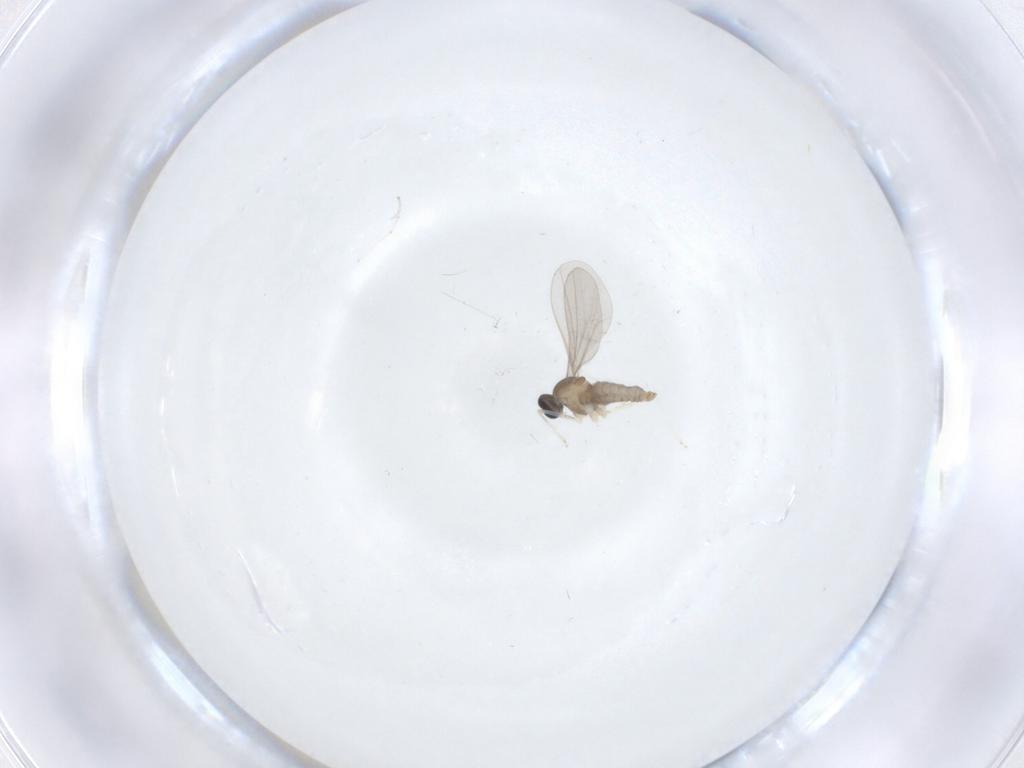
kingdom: Animalia
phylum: Arthropoda
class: Insecta
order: Diptera
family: Cecidomyiidae
